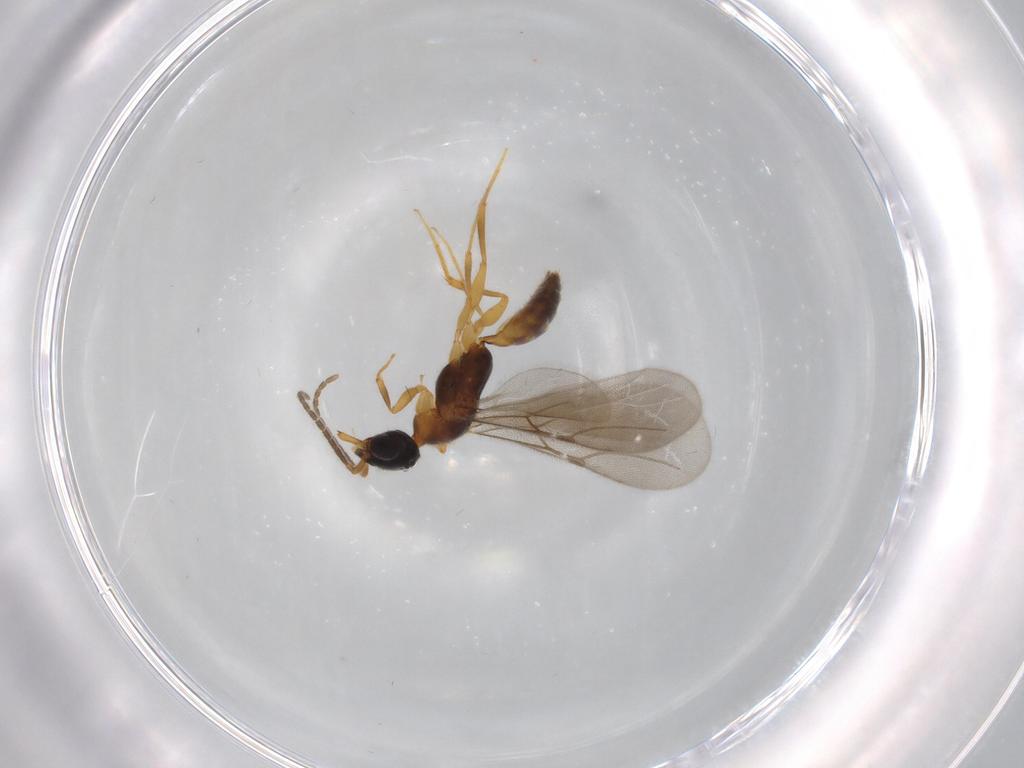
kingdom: Animalia
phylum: Arthropoda
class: Insecta
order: Hymenoptera
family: Bethylidae
